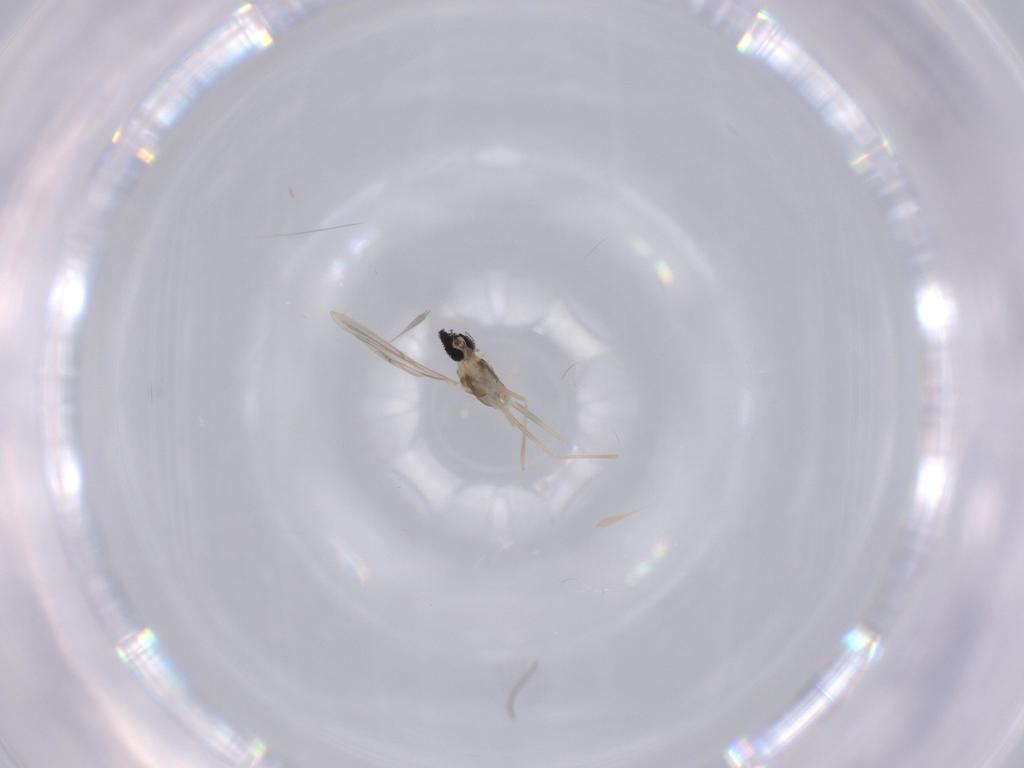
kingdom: Animalia
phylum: Arthropoda
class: Insecta
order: Diptera
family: Cecidomyiidae
